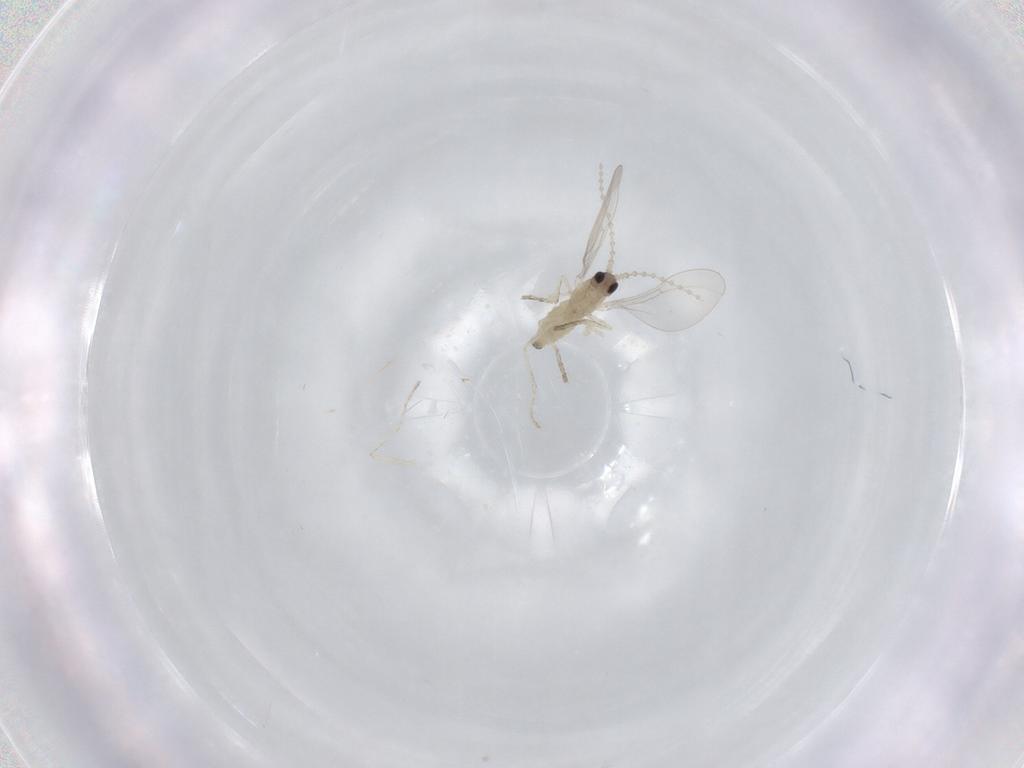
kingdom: Animalia
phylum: Arthropoda
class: Insecta
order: Diptera
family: Cecidomyiidae
